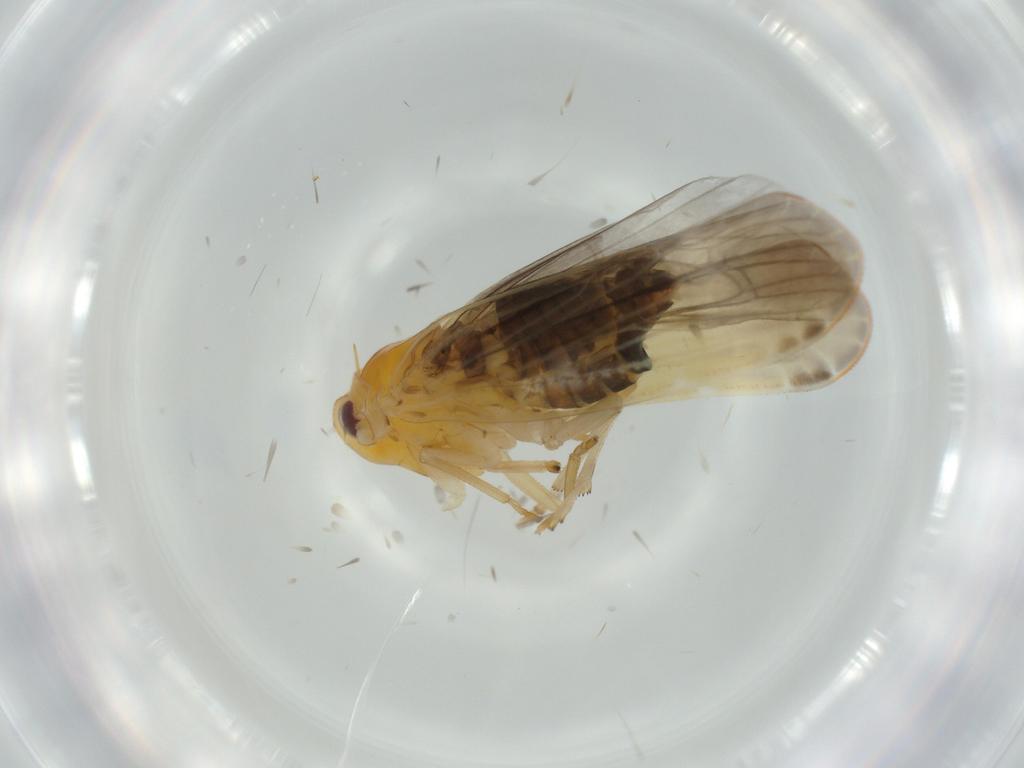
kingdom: Animalia
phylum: Arthropoda
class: Insecta
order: Hemiptera
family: Derbidae
